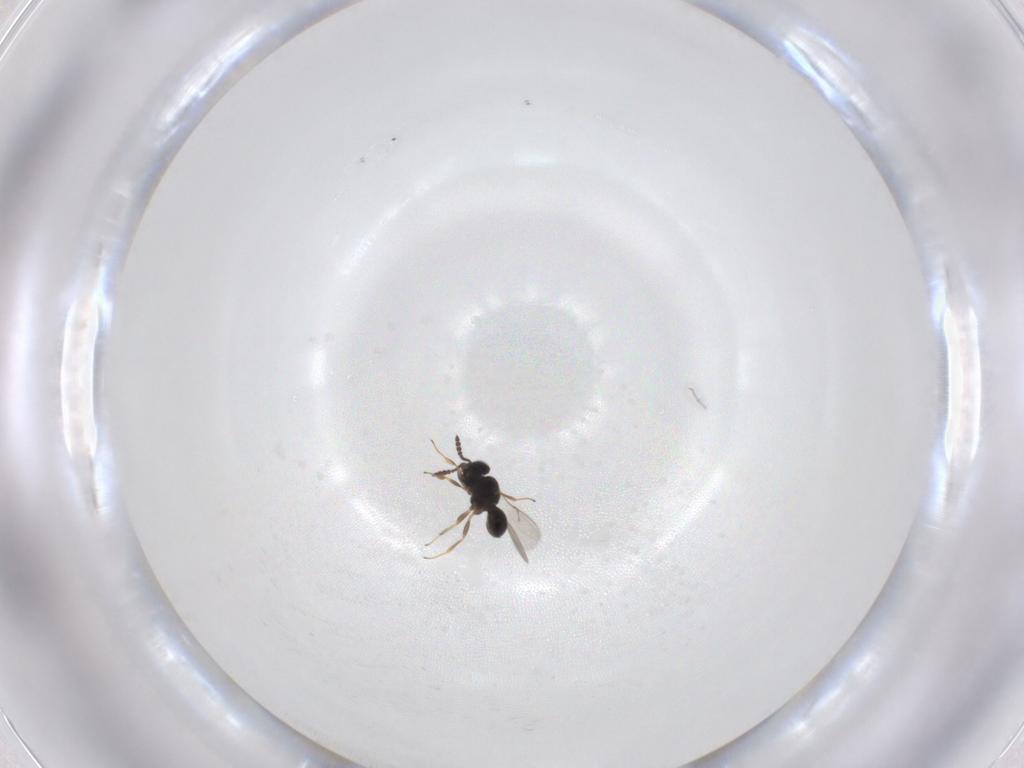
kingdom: Animalia
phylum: Arthropoda
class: Insecta
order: Hymenoptera
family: Scelionidae
